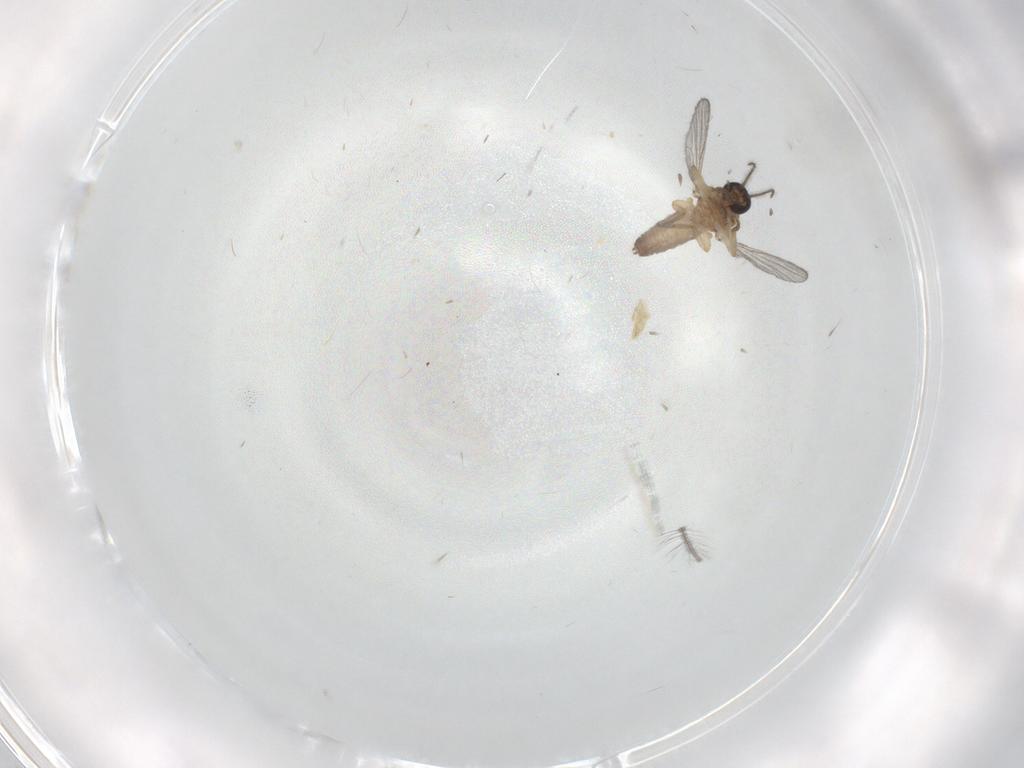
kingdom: Animalia
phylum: Arthropoda
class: Insecta
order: Diptera
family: Ceratopogonidae
